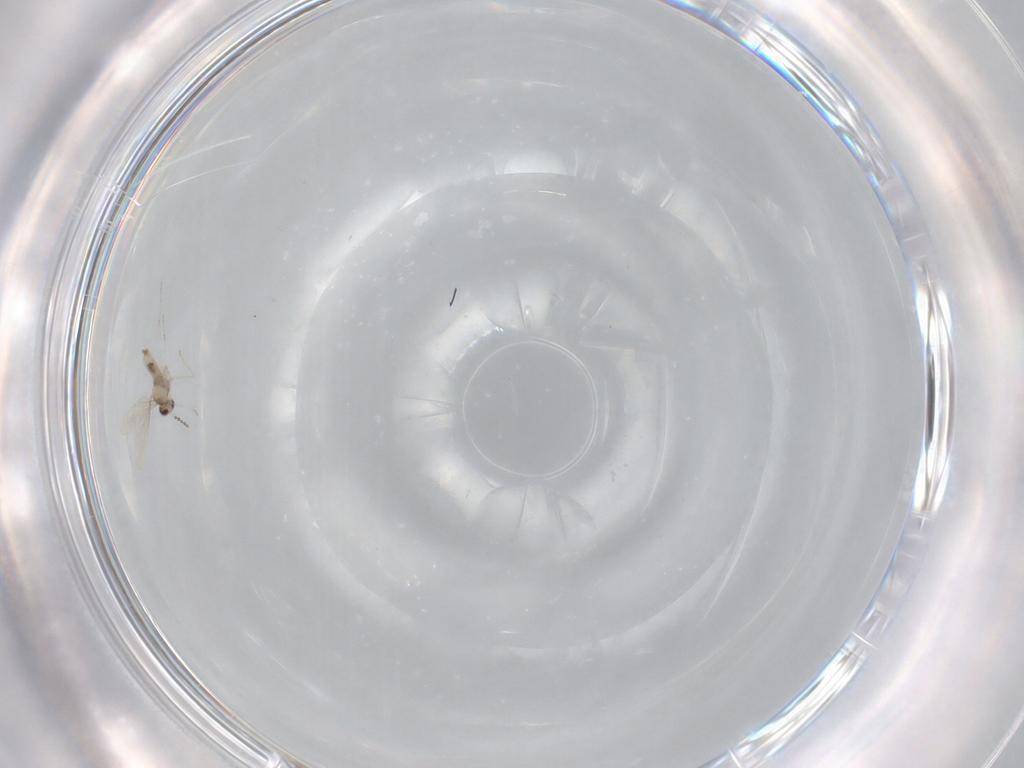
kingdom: Animalia
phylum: Arthropoda
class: Insecta
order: Diptera
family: Cecidomyiidae
